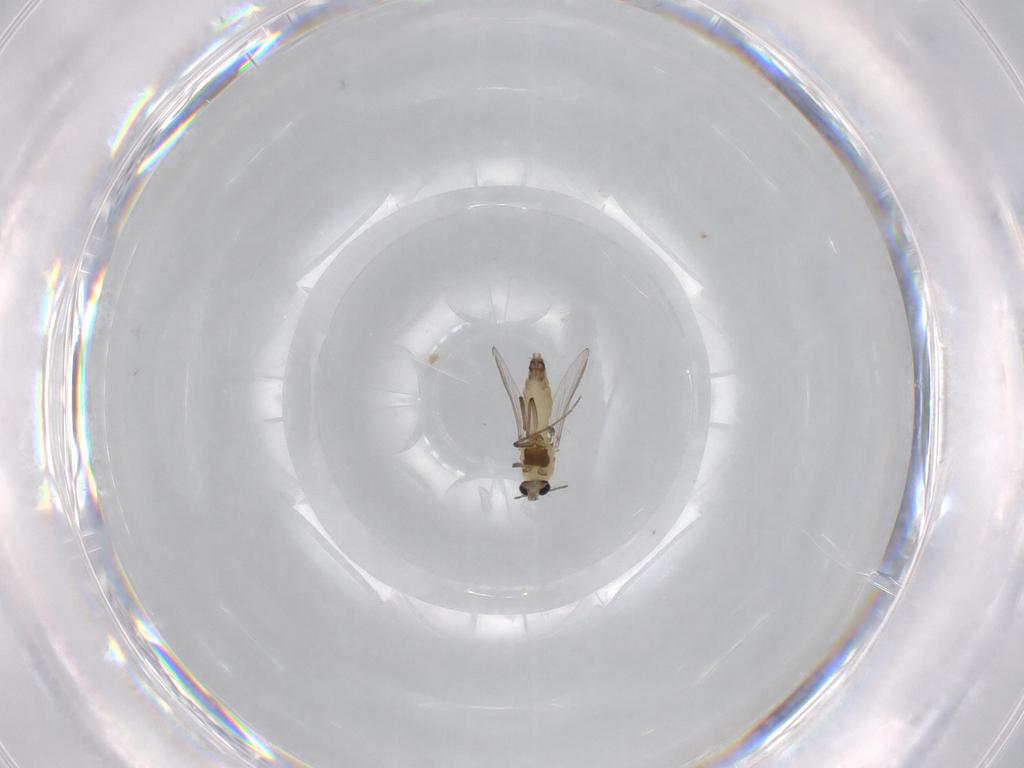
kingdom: Animalia
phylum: Arthropoda
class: Insecta
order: Diptera
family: Chironomidae
